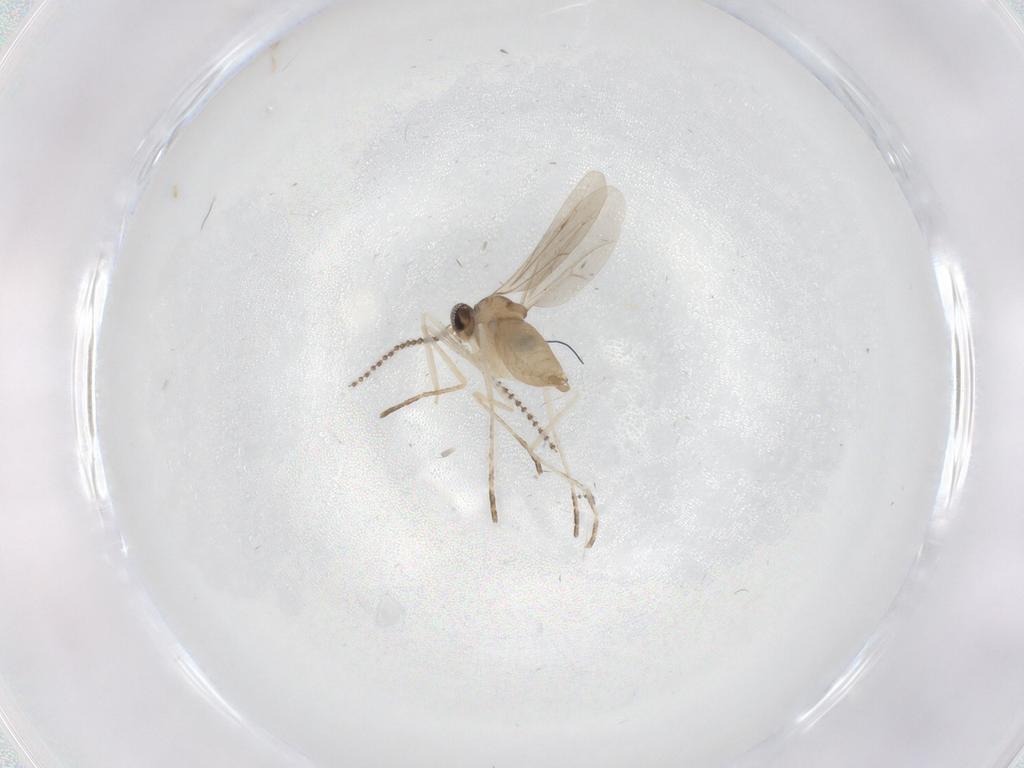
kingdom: Animalia
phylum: Arthropoda
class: Insecta
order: Diptera
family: Psychodidae
